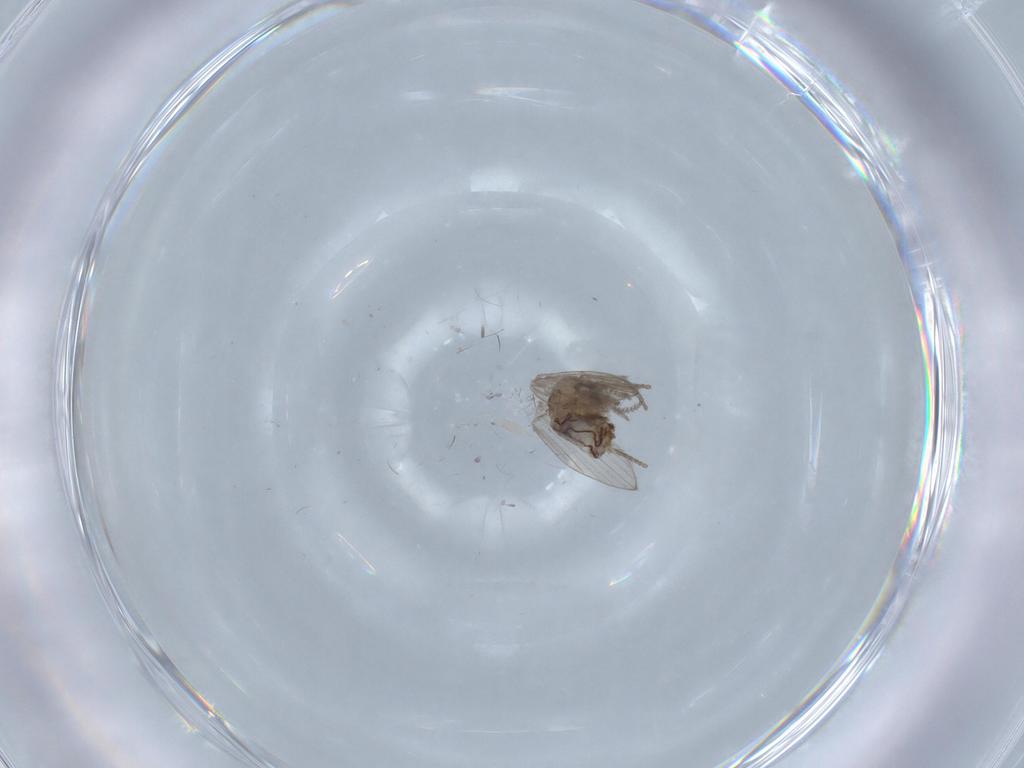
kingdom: Animalia
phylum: Arthropoda
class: Insecta
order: Diptera
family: Psychodidae
